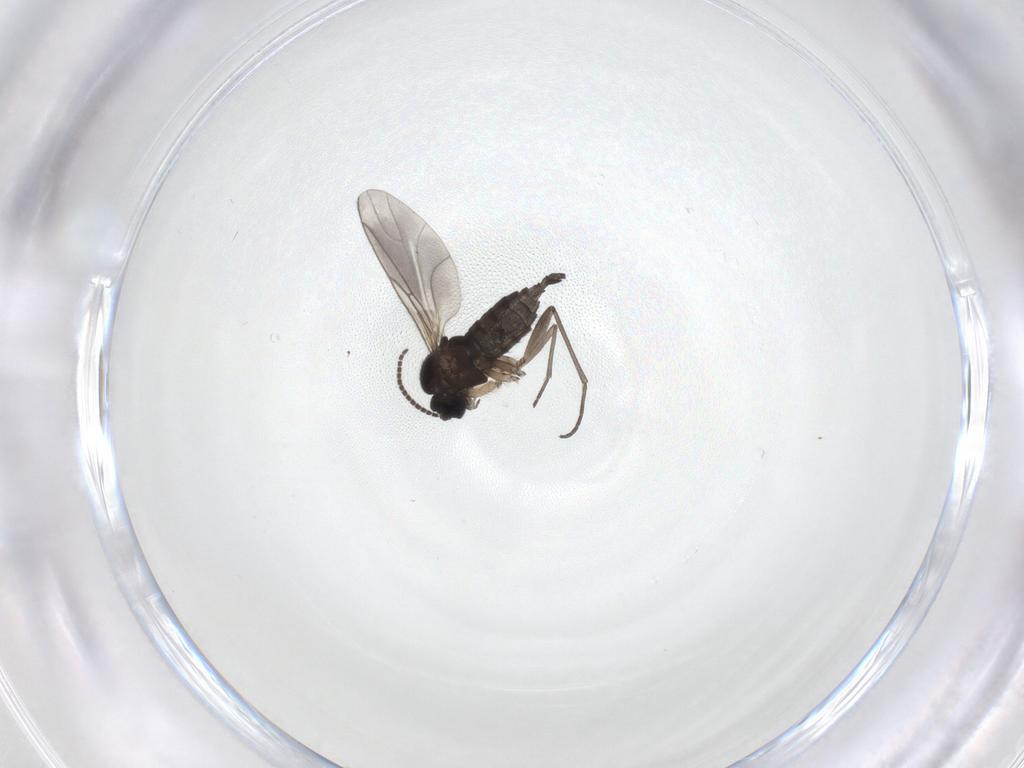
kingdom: Animalia
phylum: Arthropoda
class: Insecta
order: Diptera
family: Sciaridae
